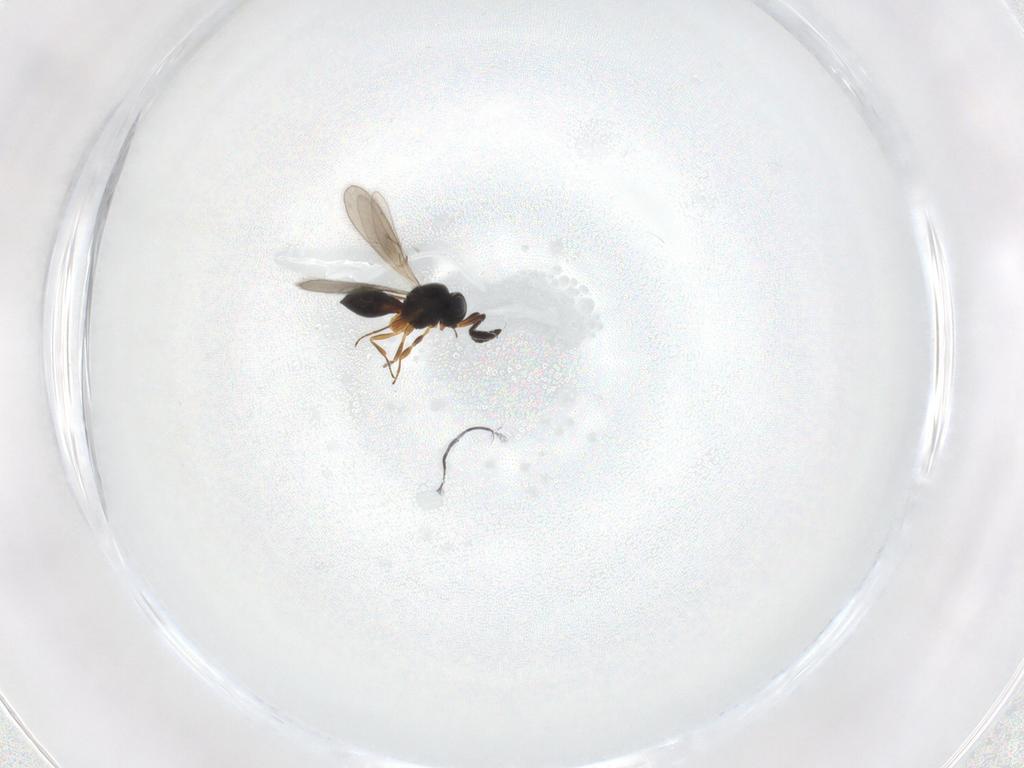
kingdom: Animalia
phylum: Arthropoda
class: Insecta
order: Hymenoptera
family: Scelionidae
